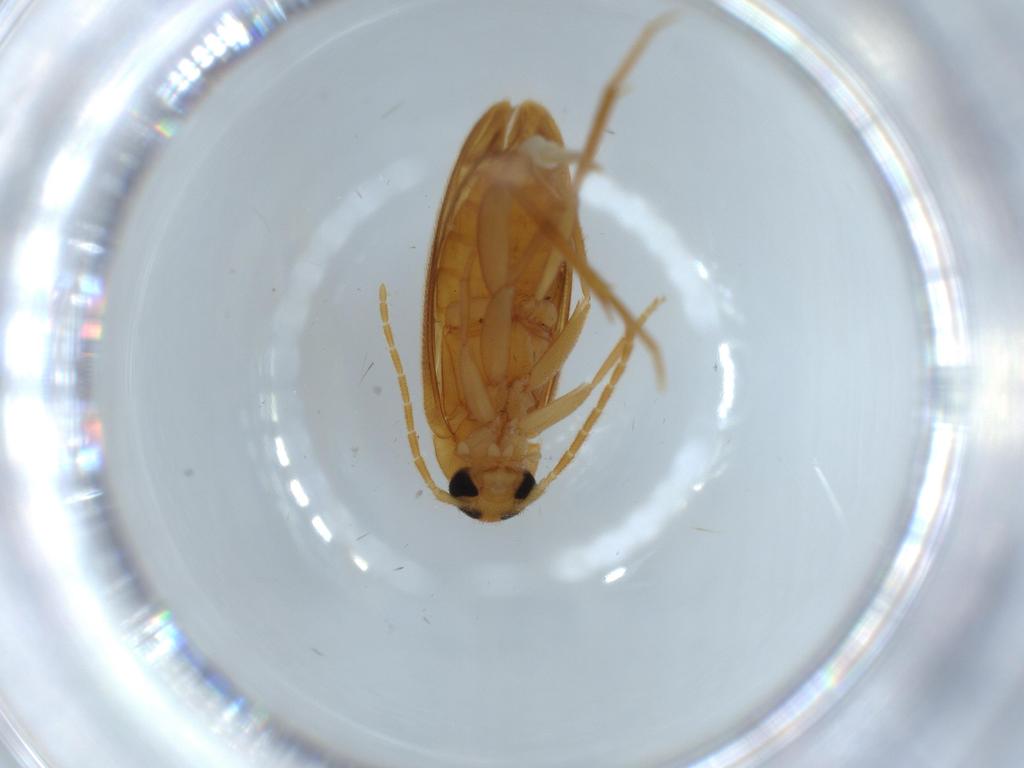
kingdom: Animalia
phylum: Arthropoda
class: Insecta
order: Coleoptera
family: Scraptiidae
